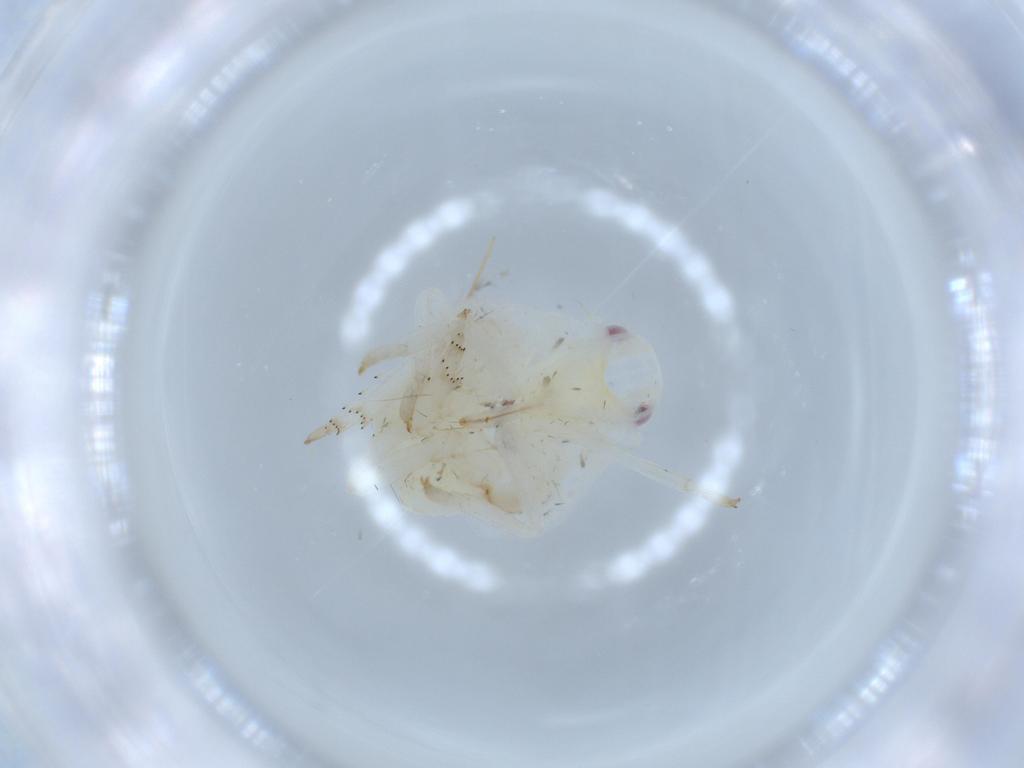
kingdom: Animalia
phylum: Arthropoda
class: Insecta
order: Hemiptera
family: Flatidae
